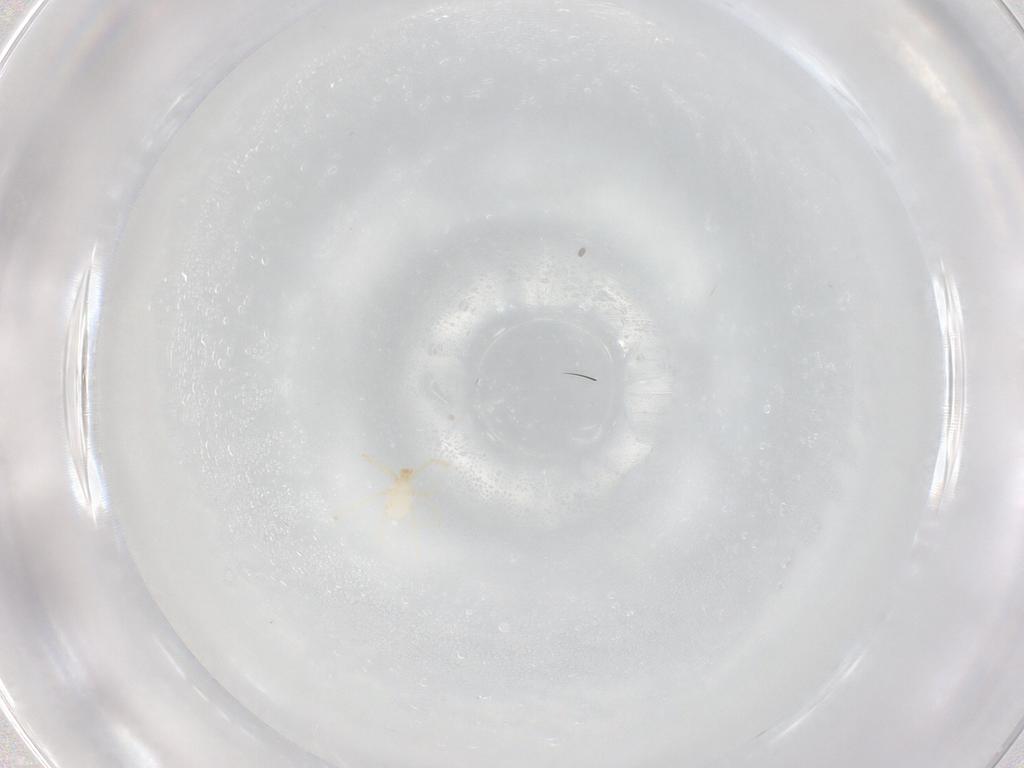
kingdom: Animalia
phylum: Arthropoda
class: Arachnida
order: Trombidiformes
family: Erythraeidae
